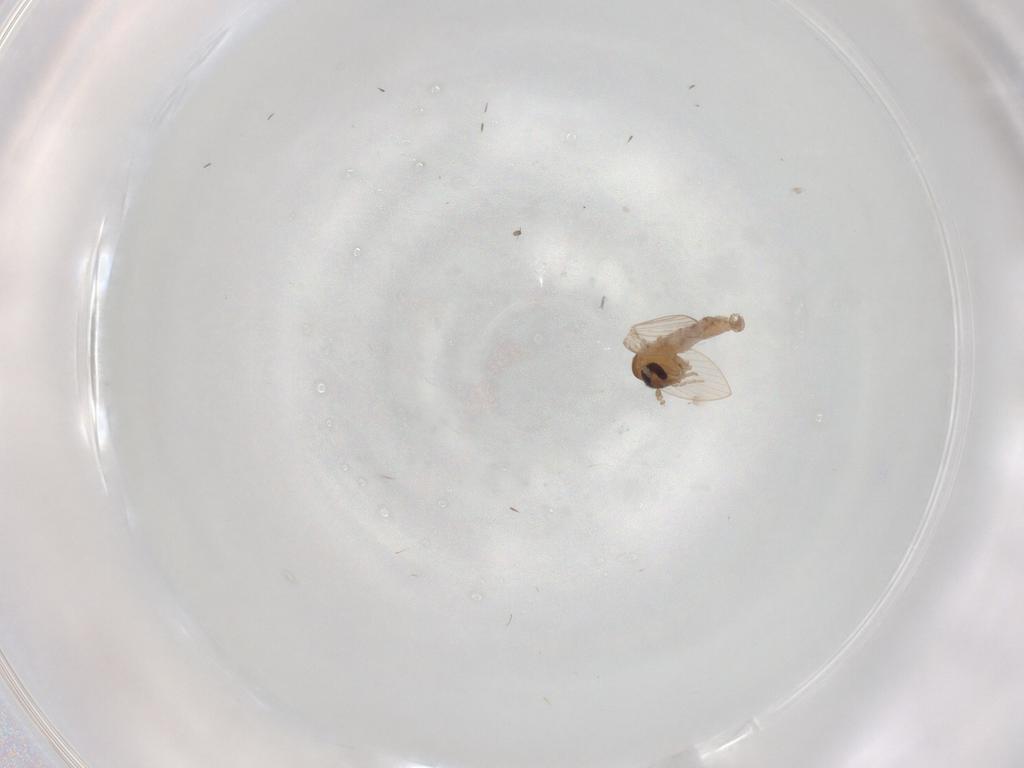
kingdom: Animalia
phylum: Arthropoda
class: Insecta
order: Diptera
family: Psychodidae
